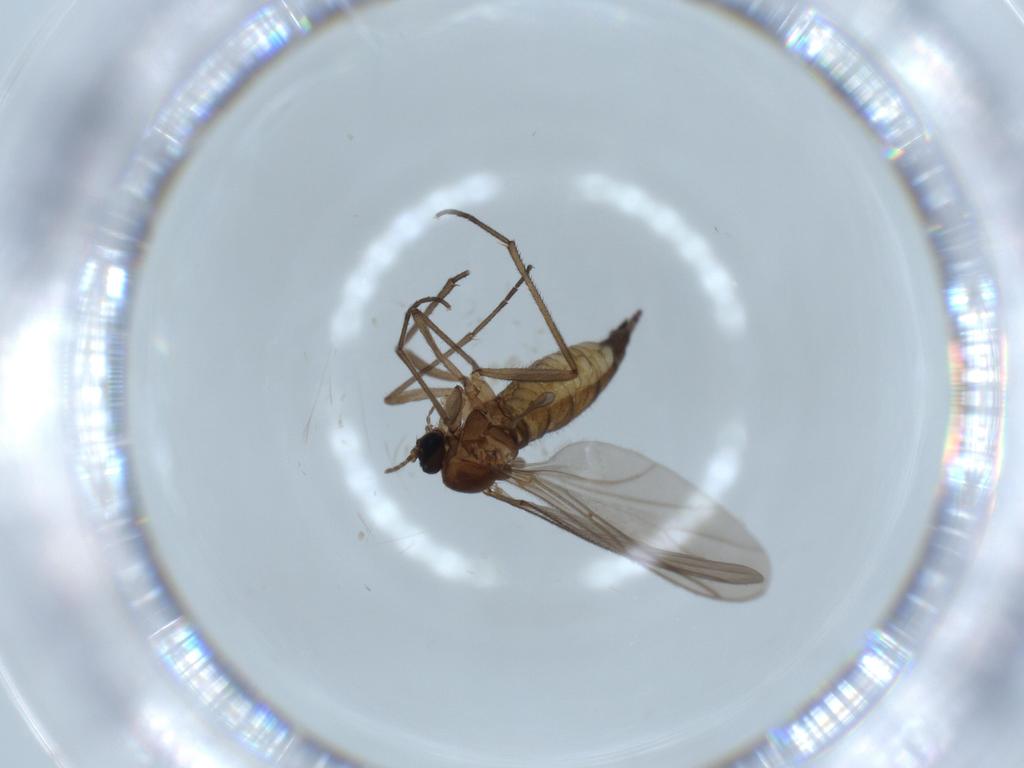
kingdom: Animalia
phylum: Arthropoda
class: Insecta
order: Diptera
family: Sciaridae
